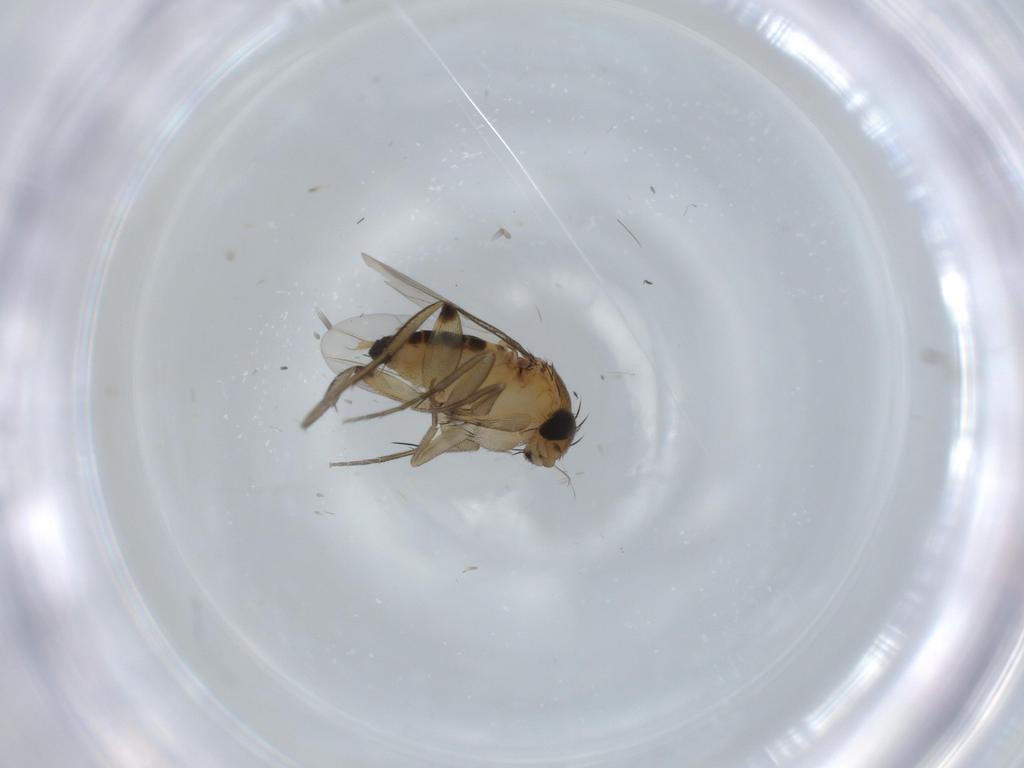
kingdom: Animalia
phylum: Arthropoda
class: Insecta
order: Diptera
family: Phoridae
